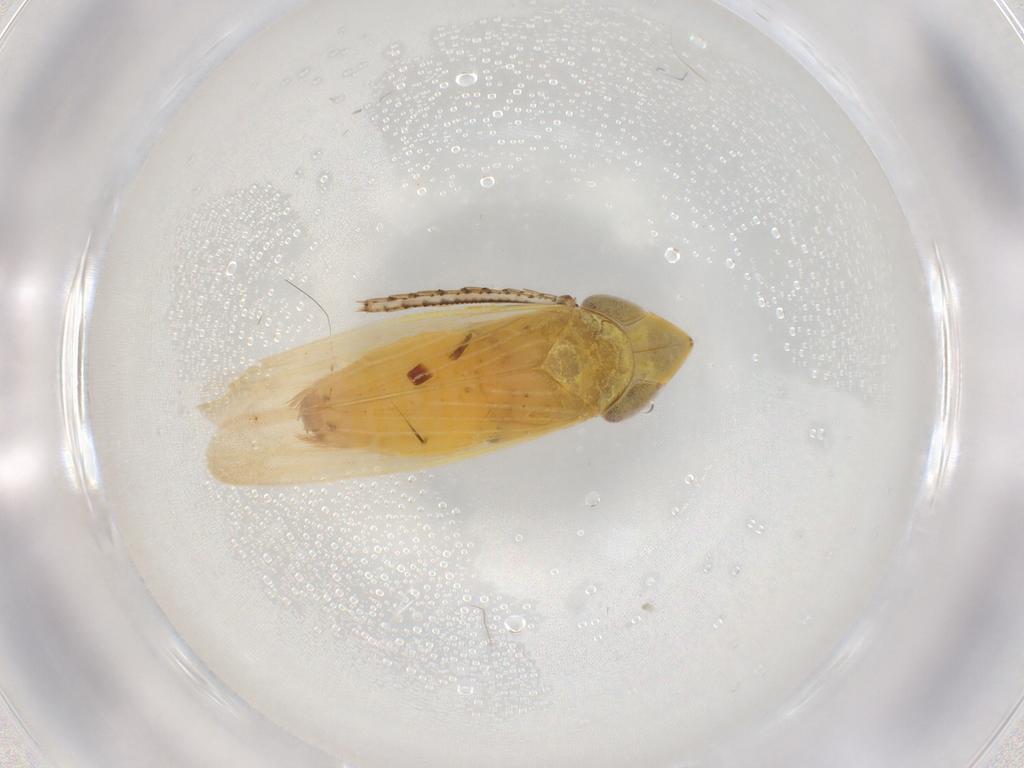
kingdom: Animalia
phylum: Arthropoda
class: Insecta
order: Hemiptera
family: Cicadellidae
